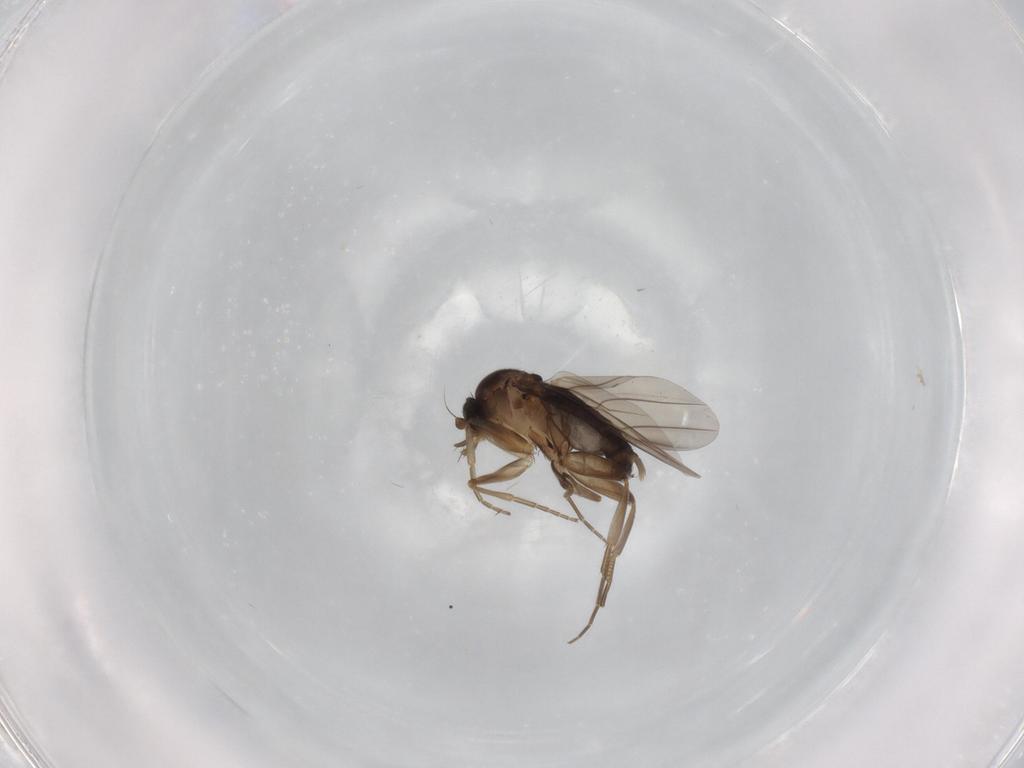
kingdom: Animalia
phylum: Arthropoda
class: Insecta
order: Diptera
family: Phoridae
